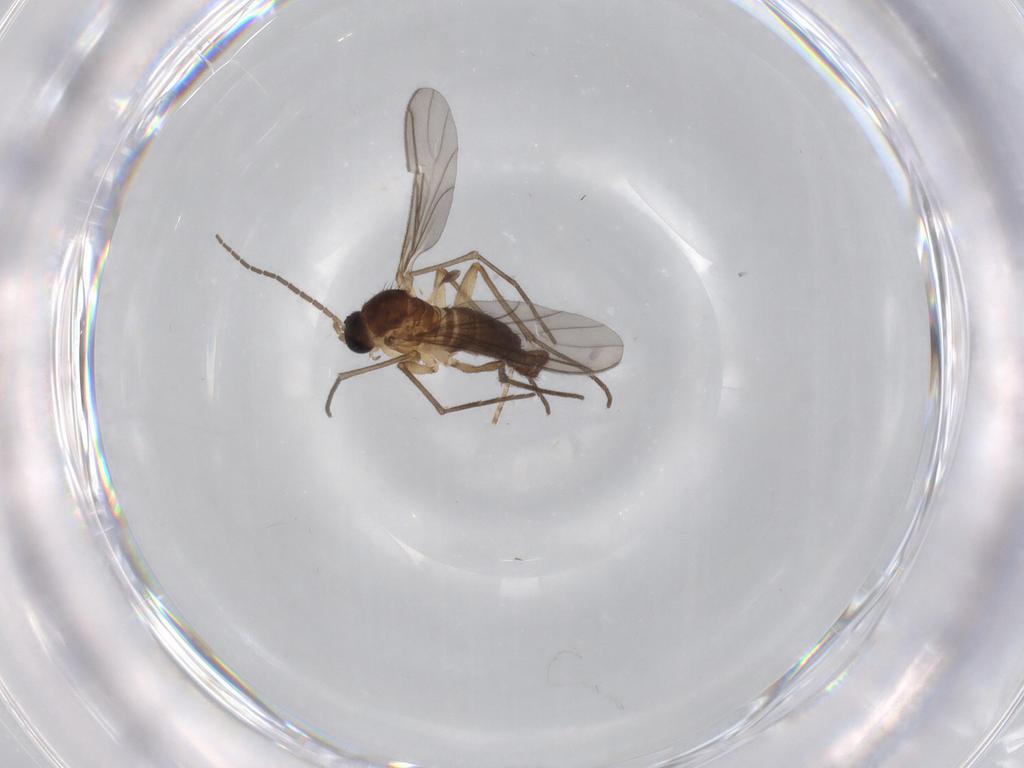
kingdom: Animalia
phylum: Arthropoda
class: Insecta
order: Diptera
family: Sciaridae
